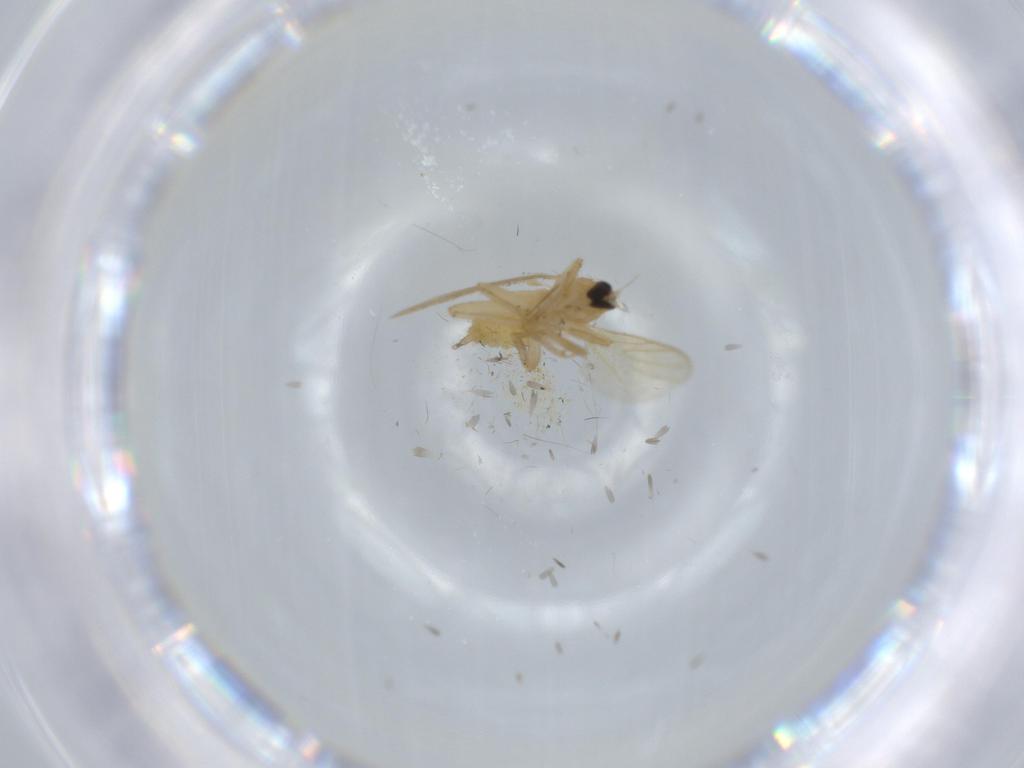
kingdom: Animalia
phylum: Arthropoda
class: Insecta
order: Diptera
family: Hybotidae
